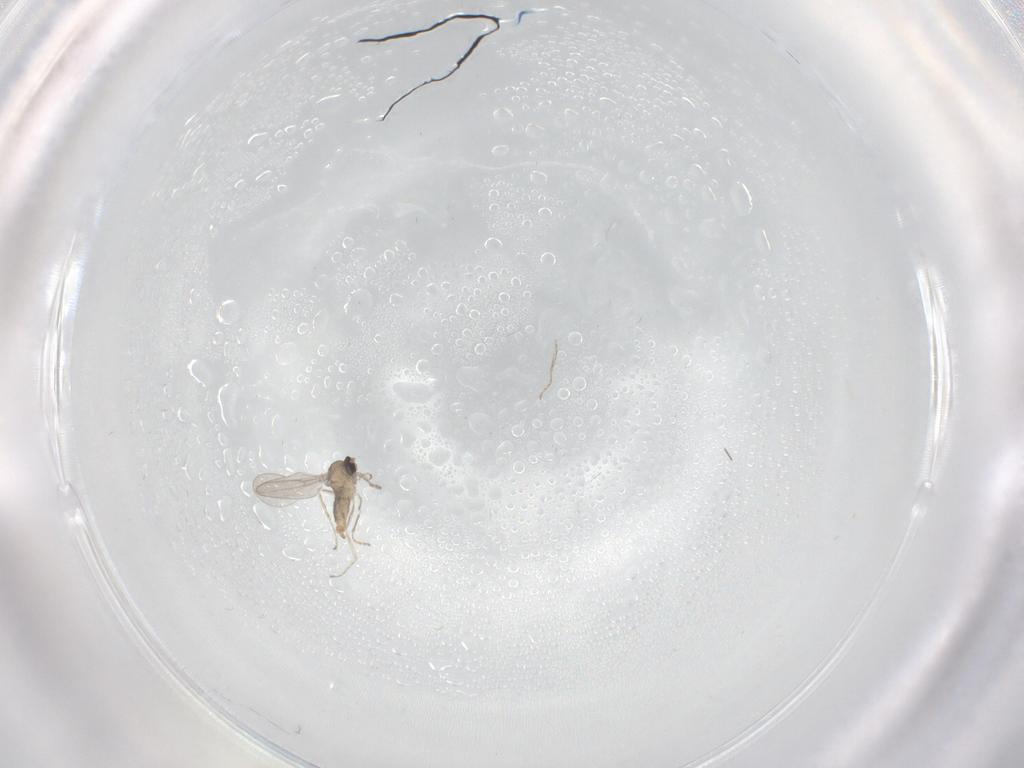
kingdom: Animalia
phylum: Arthropoda
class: Insecta
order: Diptera
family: Cecidomyiidae
